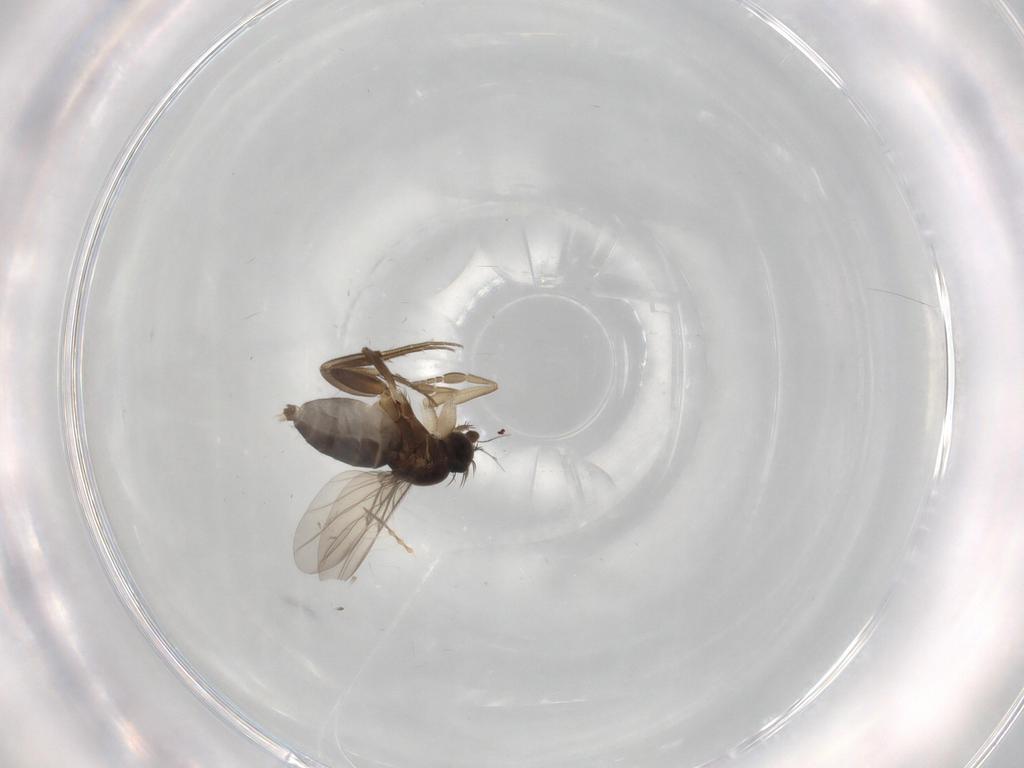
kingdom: Animalia
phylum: Arthropoda
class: Insecta
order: Diptera
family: Phoridae
